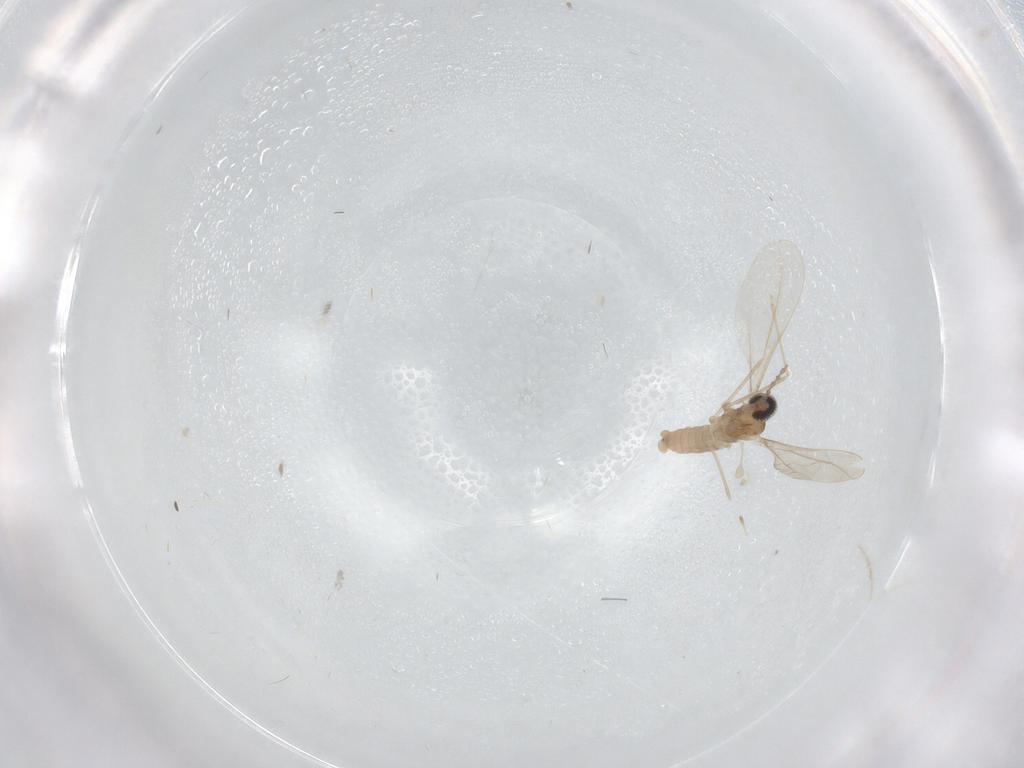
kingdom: Animalia
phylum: Arthropoda
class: Insecta
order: Diptera
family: Cecidomyiidae
